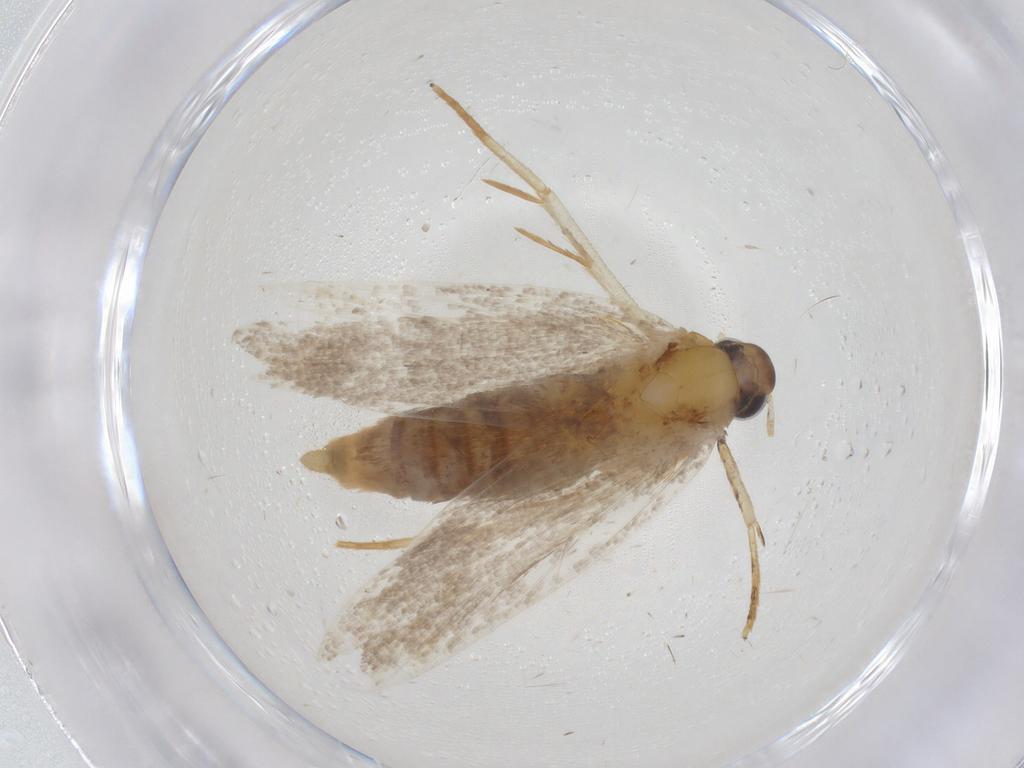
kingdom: Animalia
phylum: Arthropoda
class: Insecta
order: Lepidoptera
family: Oecophoridae
